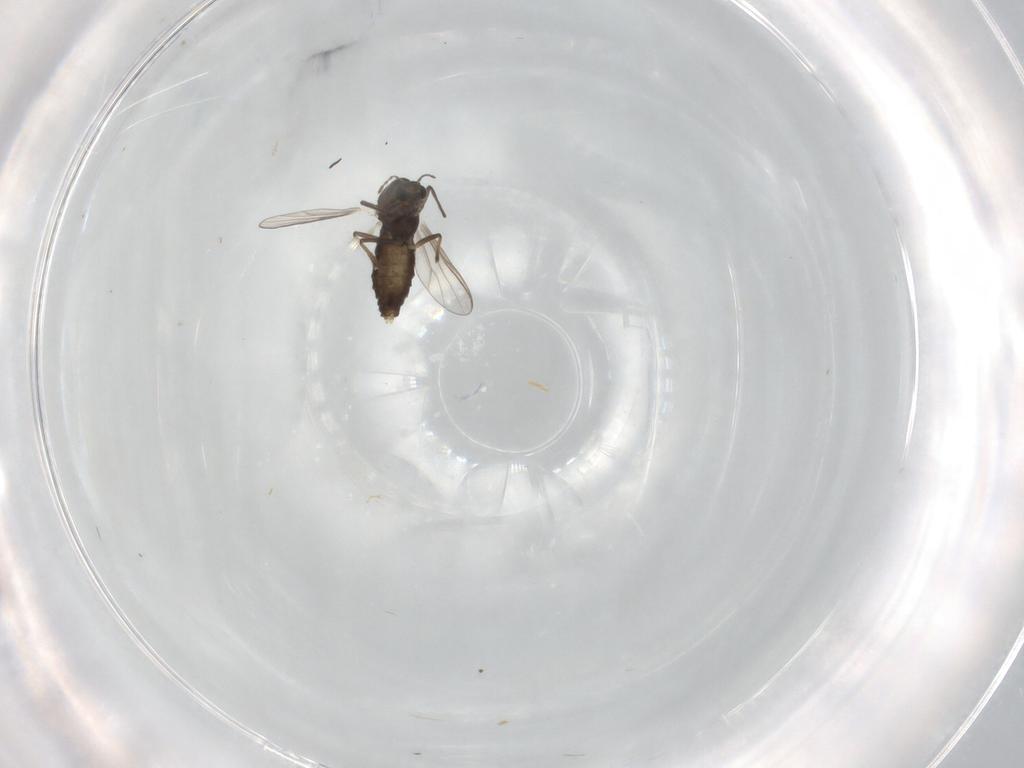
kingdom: Animalia
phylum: Arthropoda
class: Insecta
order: Diptera
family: Chironomidae
